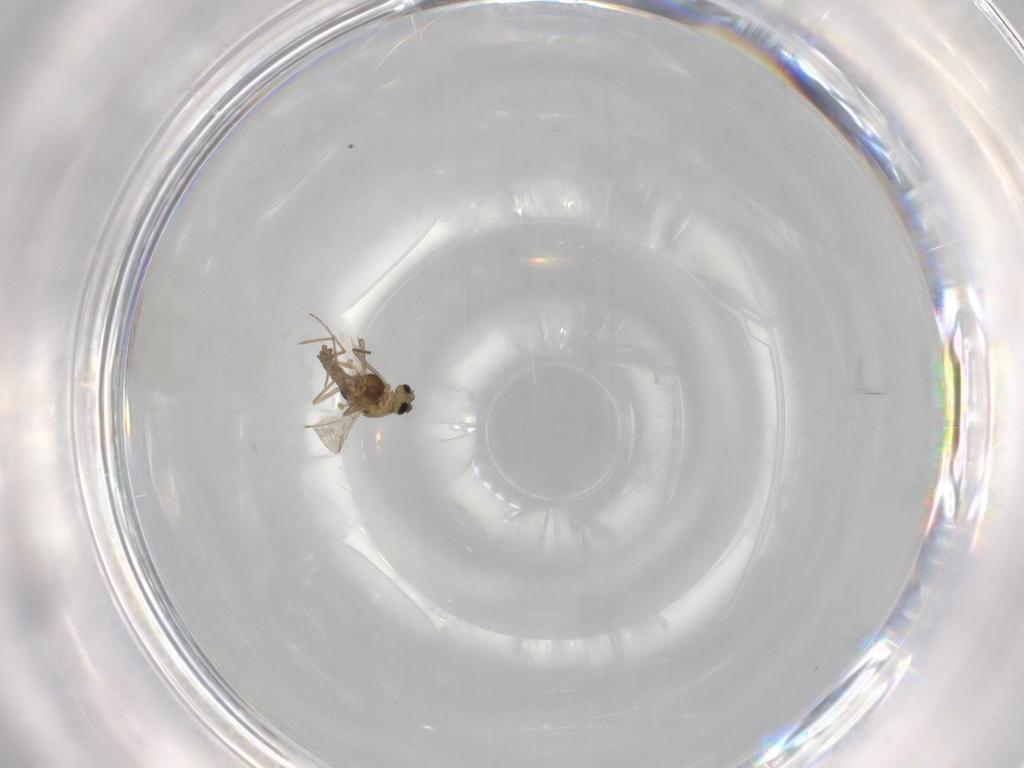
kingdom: Animalia
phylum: Arthropoda
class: Insecta
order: Diptera
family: Chironomidae
